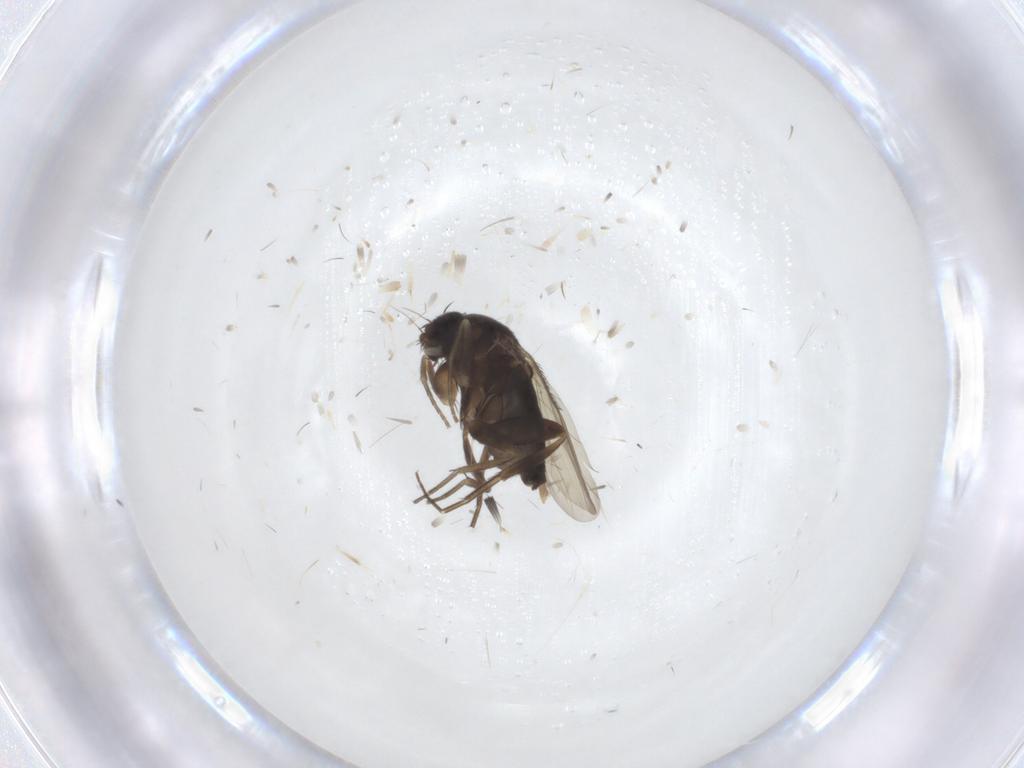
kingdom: Animalia
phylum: Arthropoda
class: Insecta
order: Diptera
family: Phoridae
